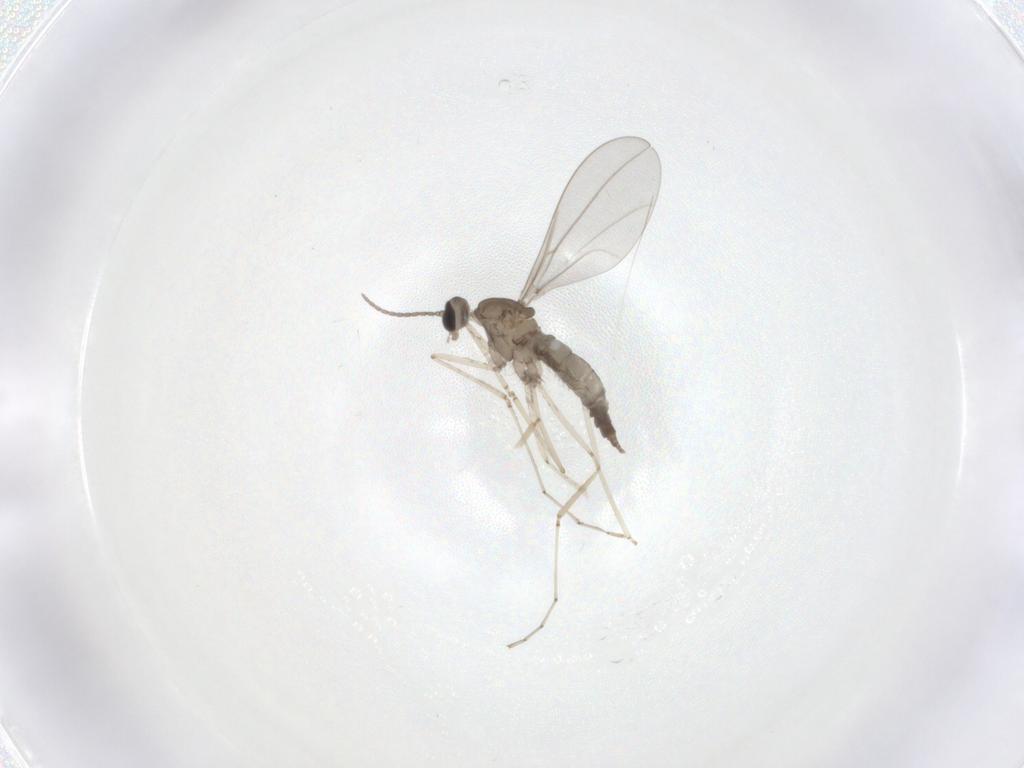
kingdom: Animalia
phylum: Arthropoda
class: Insecta
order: Diptera
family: Cecidomyiidae
